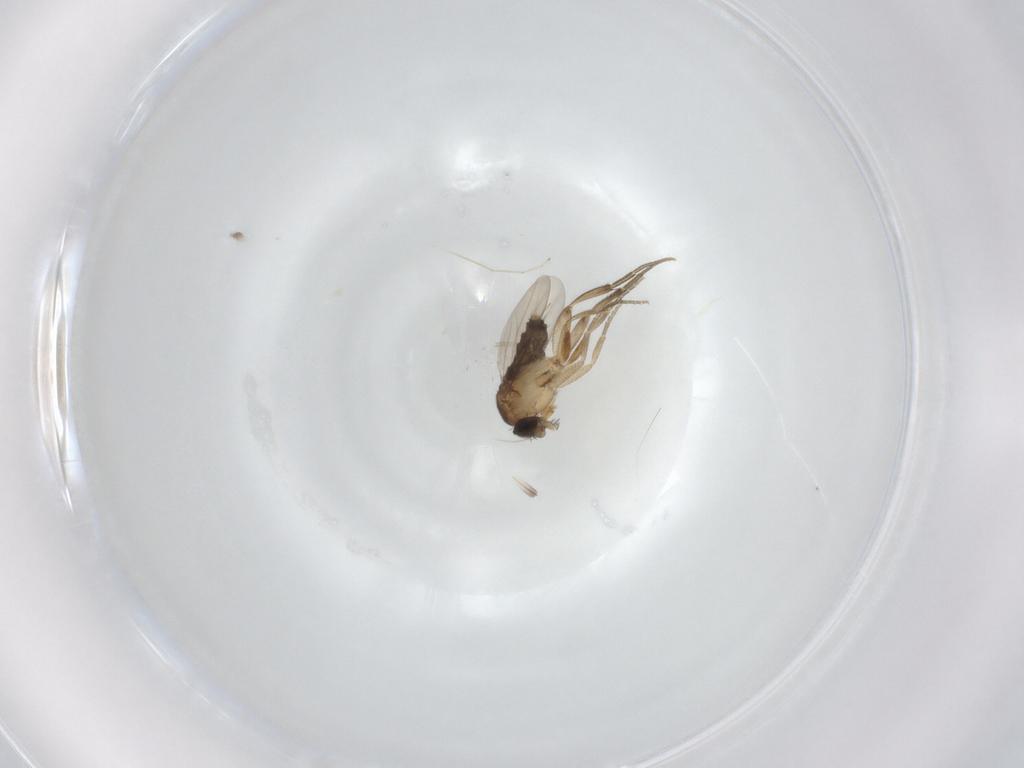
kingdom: Animalia
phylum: Arthropoda
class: Insecta
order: Diptera
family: Phoridae
